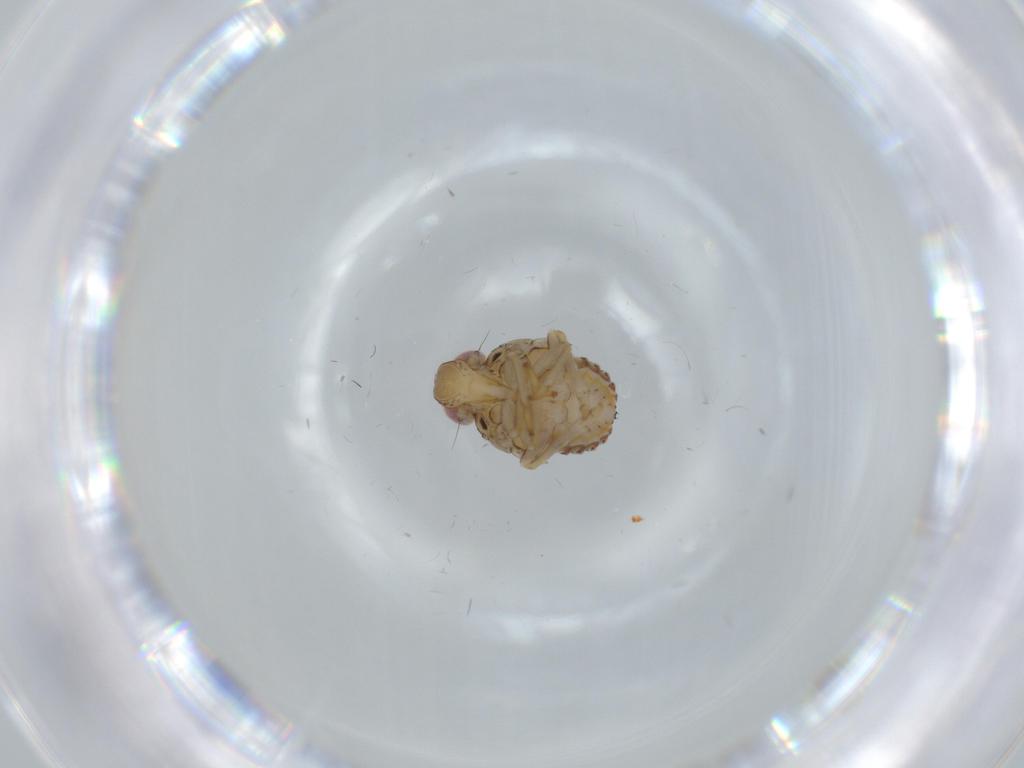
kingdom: Animalia
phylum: Arthropoda
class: Insecta
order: Hemiptera
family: Issidae
